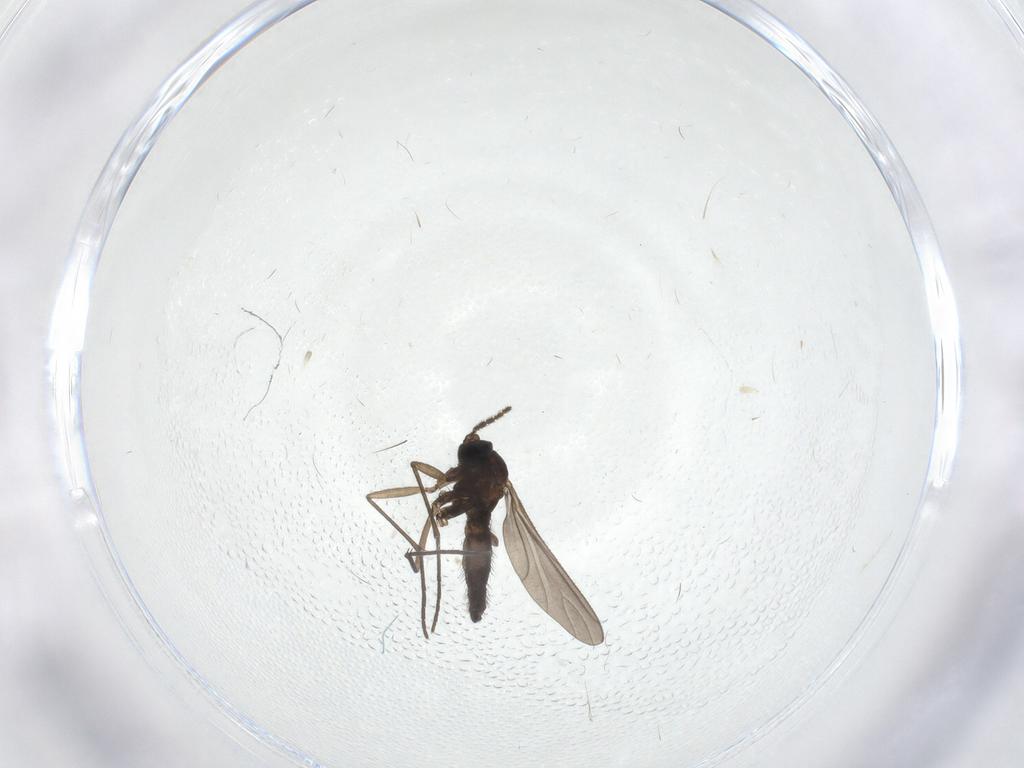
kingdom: Animalia
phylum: Arthropoda
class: Insecta
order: Diptera
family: Sciaridae
